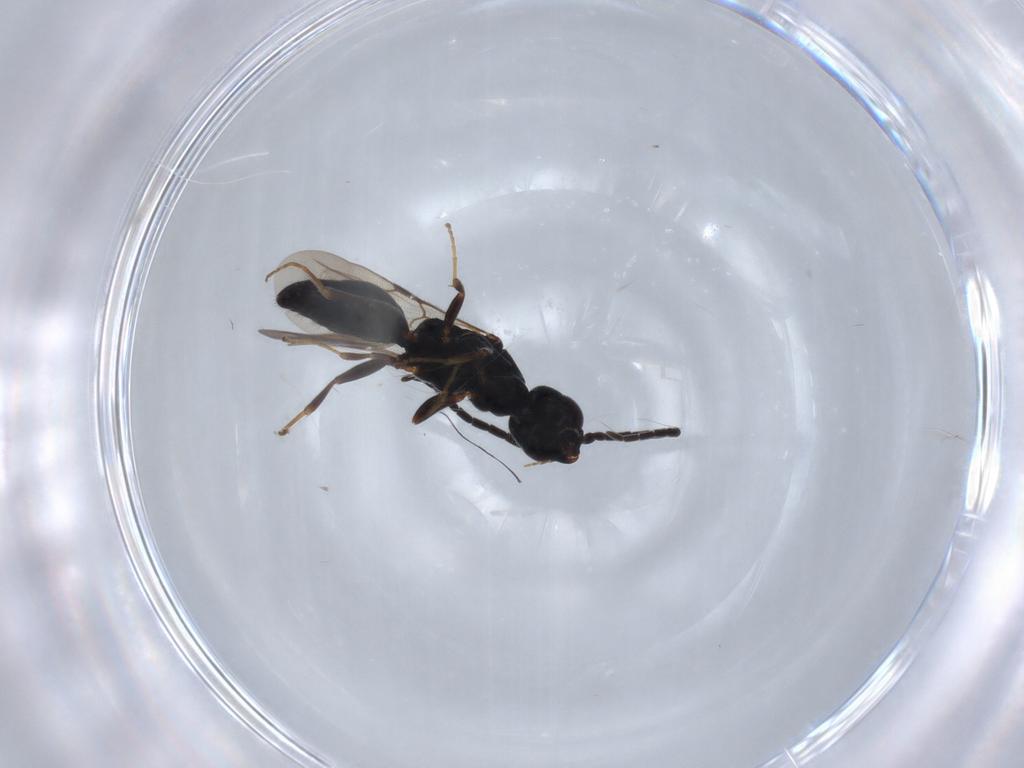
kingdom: Animalia
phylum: Arthropoda
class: Insecta
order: Hymenoptera
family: Bethylidae
